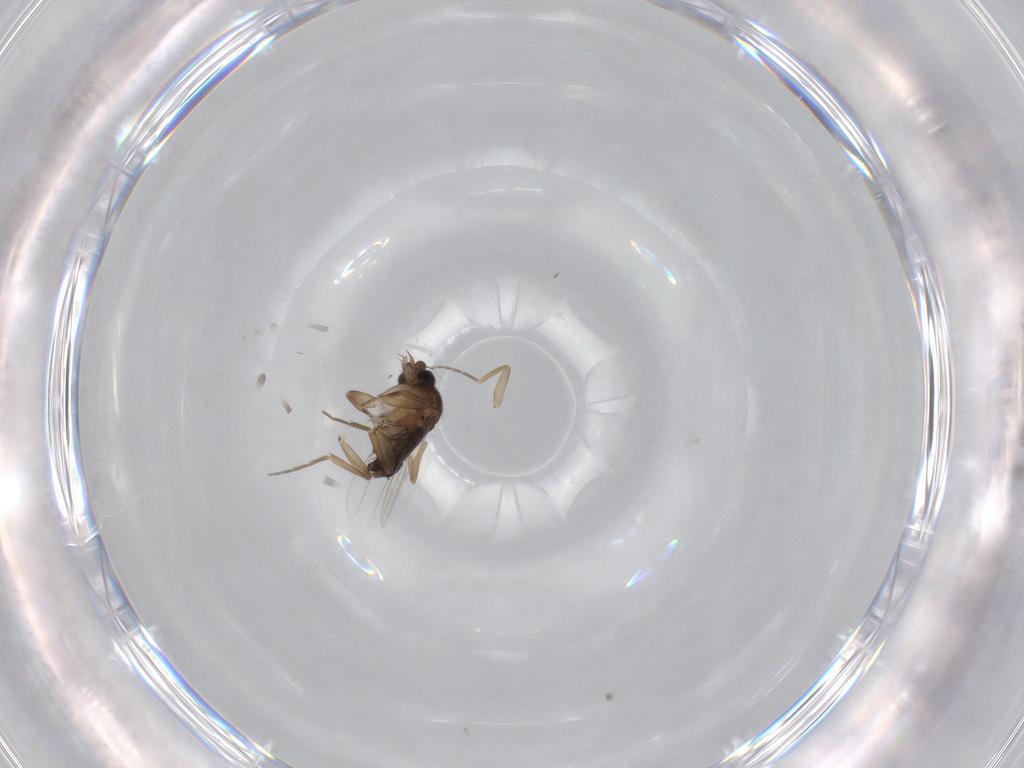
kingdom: Animalia
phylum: Arthropoda
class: Insecta
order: Diptera
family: Phoridae
